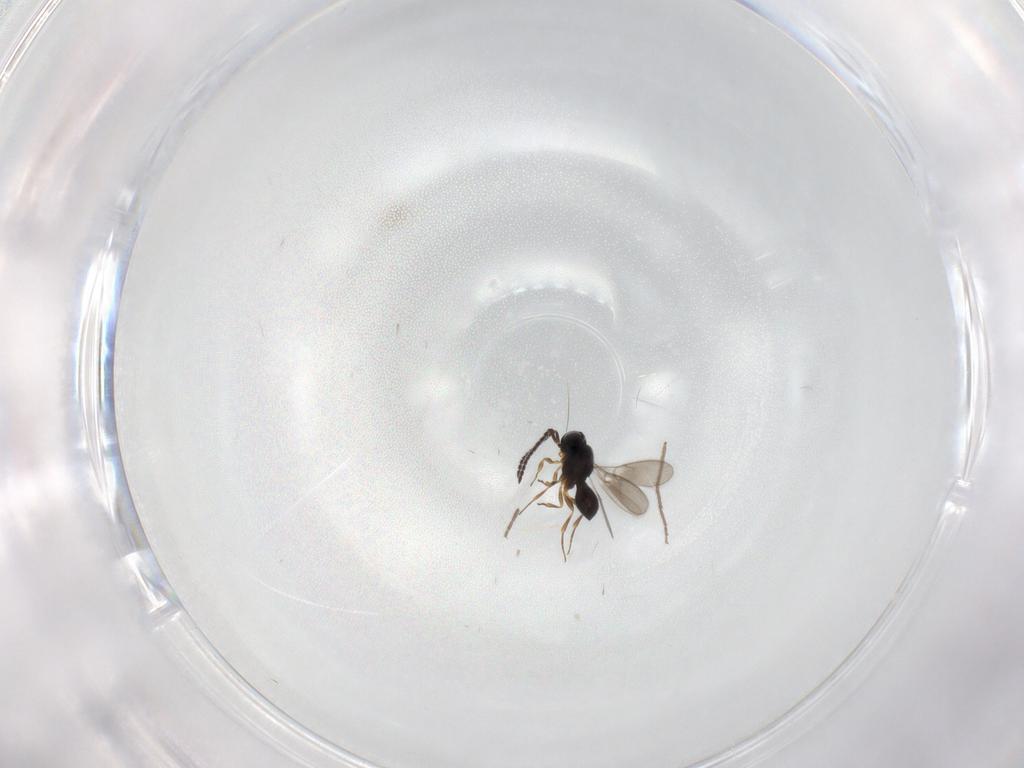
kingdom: Animalia
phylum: Arthropoda
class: Insecta
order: Hymenoptera
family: Scelionidae
